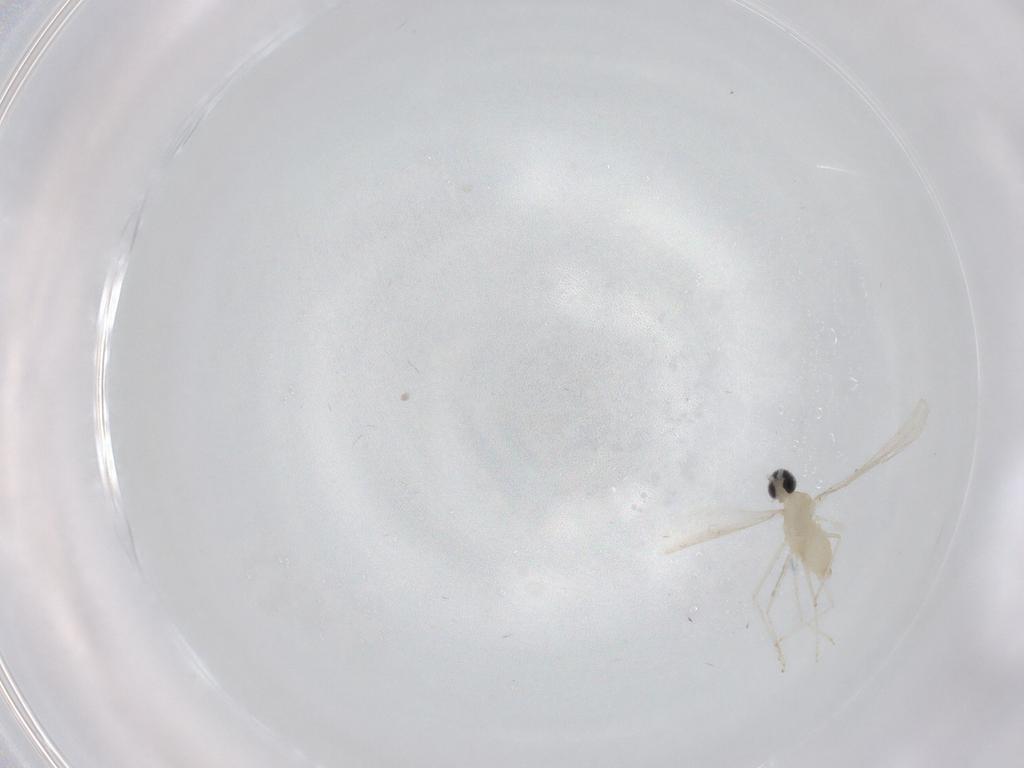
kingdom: Animalia
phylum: Arthropoda
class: Insecta
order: Diptera
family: Cecidomyiidae
